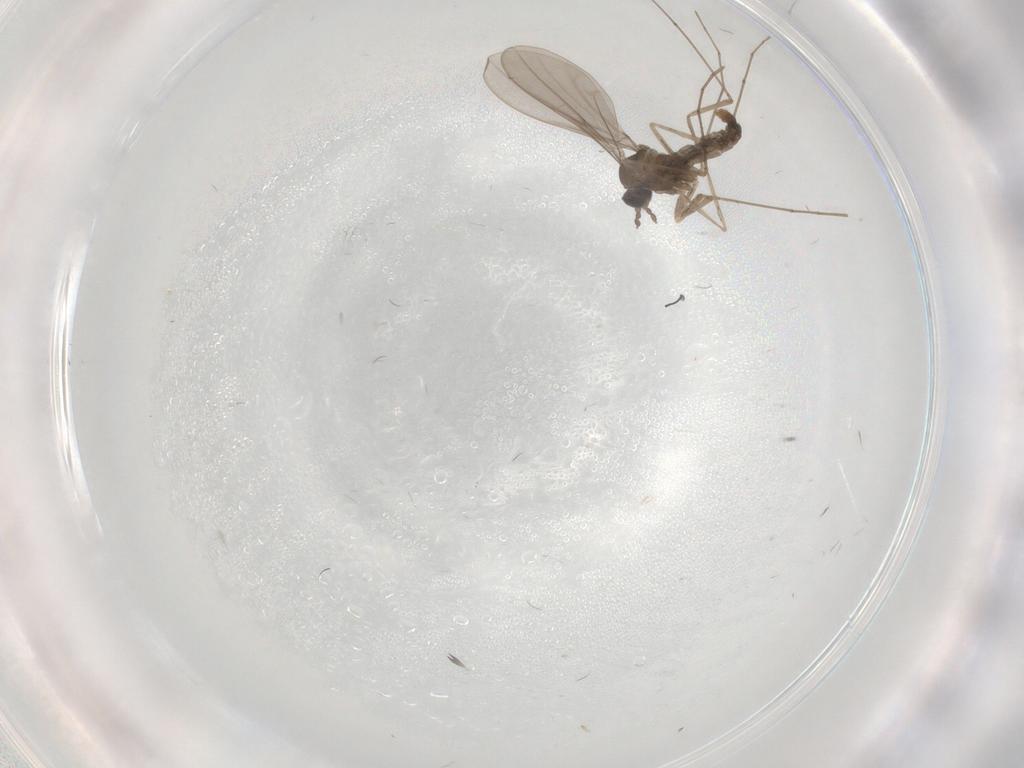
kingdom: Animalia
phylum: Arthropoda
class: Insecta
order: Diptera
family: Cecidomyiidae
